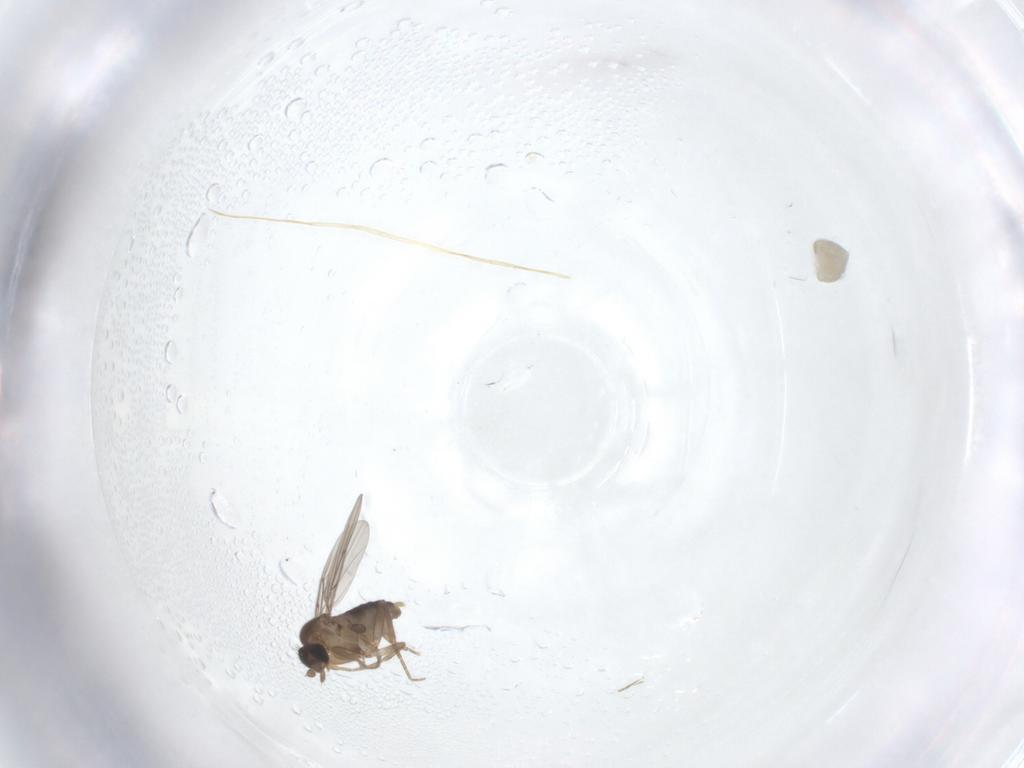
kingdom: Animalia
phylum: Arthropoda
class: Insecta
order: Diptera
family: Phoridae
